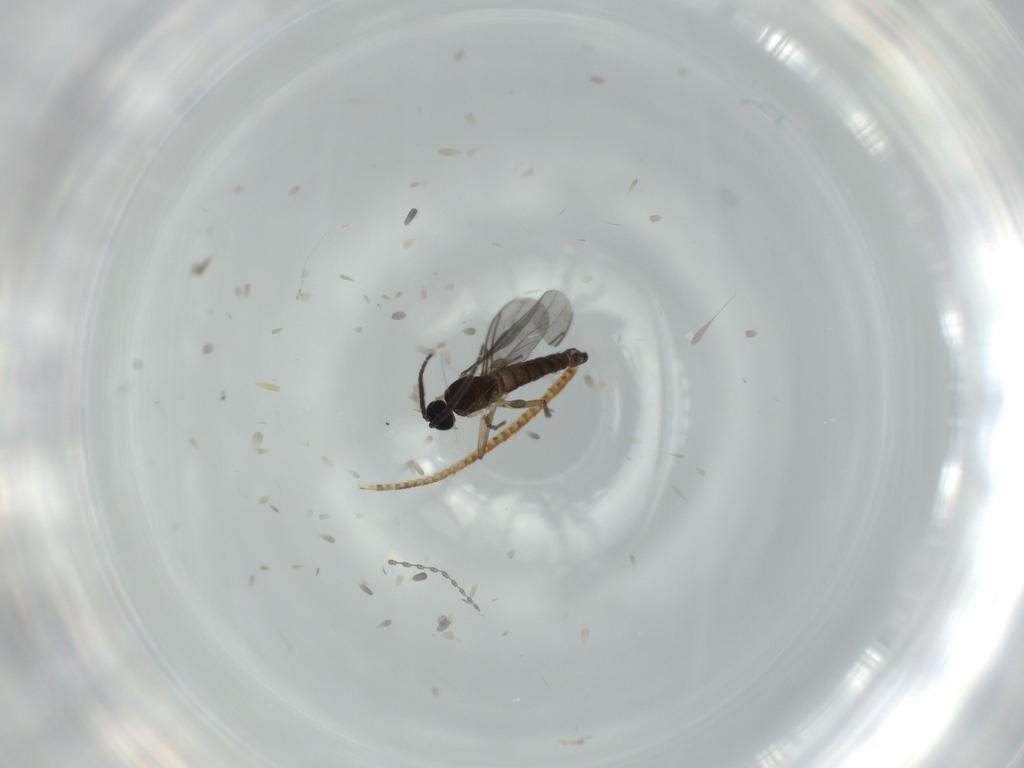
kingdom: Animalia
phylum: Arthropoda
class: Insecta
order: Diptera
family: Sciaridae
